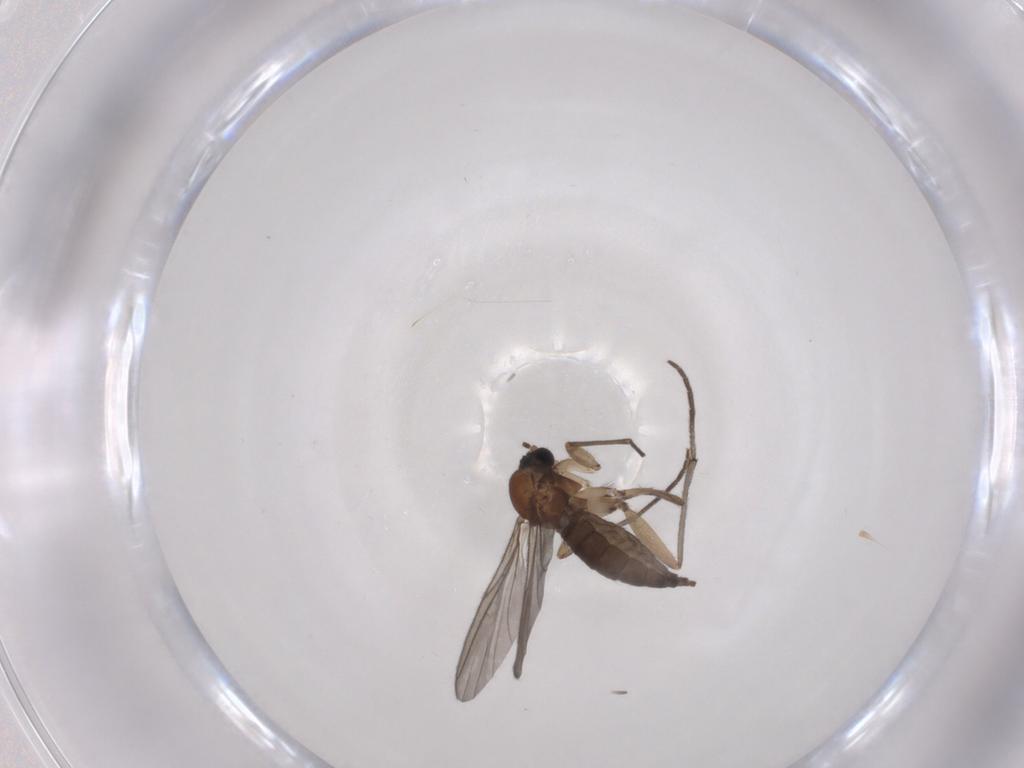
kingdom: Animalia
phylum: Arthropoda
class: Insecta
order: Diptera
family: Sciaridae
